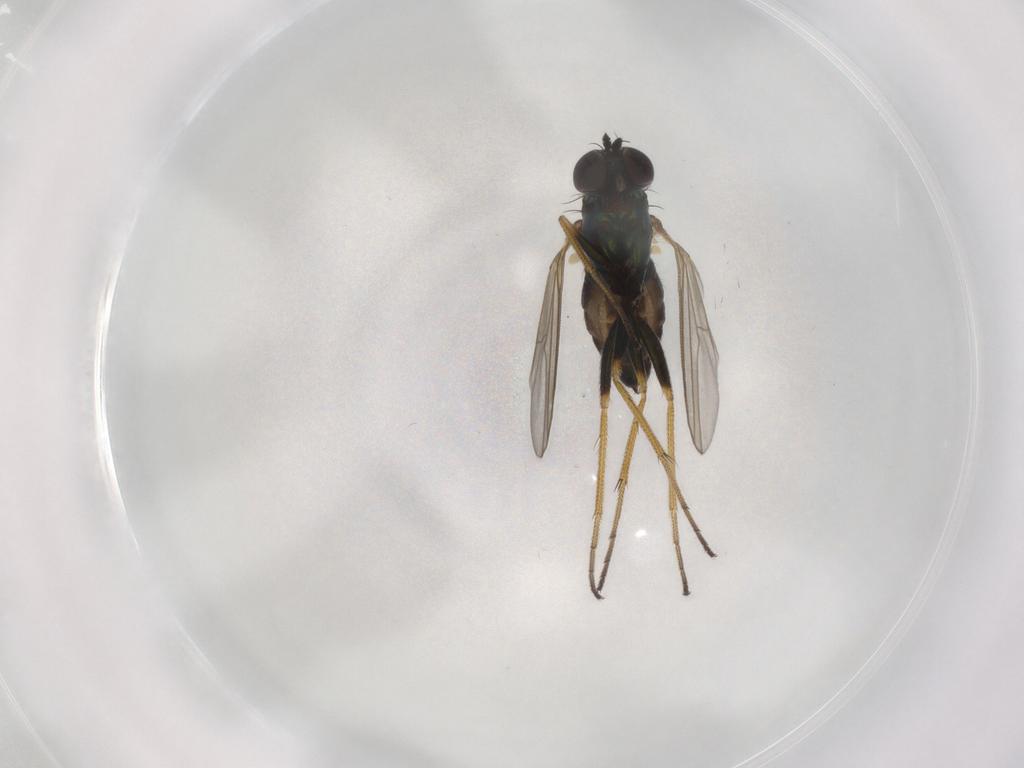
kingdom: Animalia
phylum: Arthropoda
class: Insecta
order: Diptera
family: Dolichopodidae
